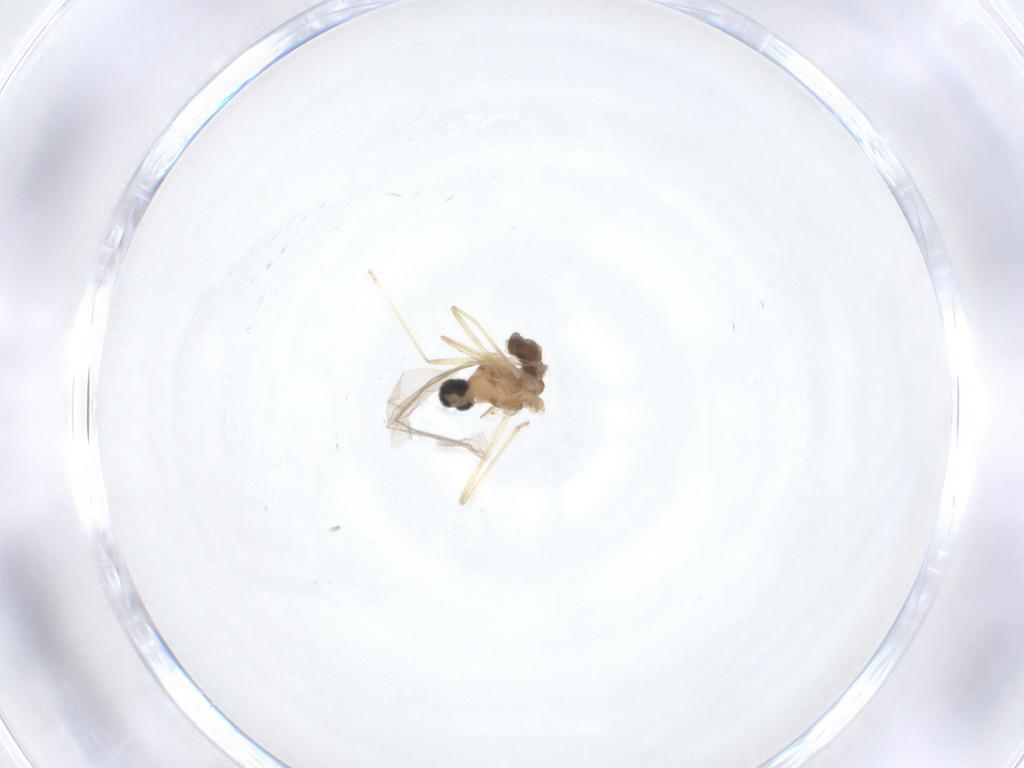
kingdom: Animalia
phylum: Arthropoda
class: Insecta
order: Diptera
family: Cecidomyiidae
